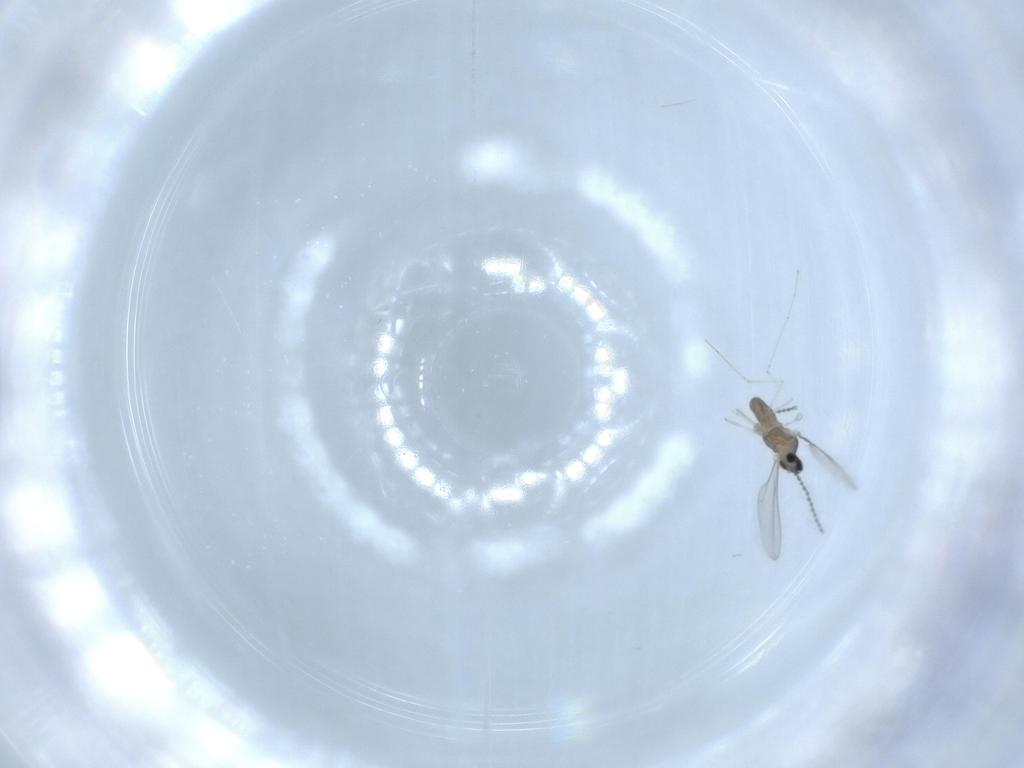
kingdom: Animalia
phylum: Arthropoda
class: Insecta
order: Diptera
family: Cecidomyiidae
